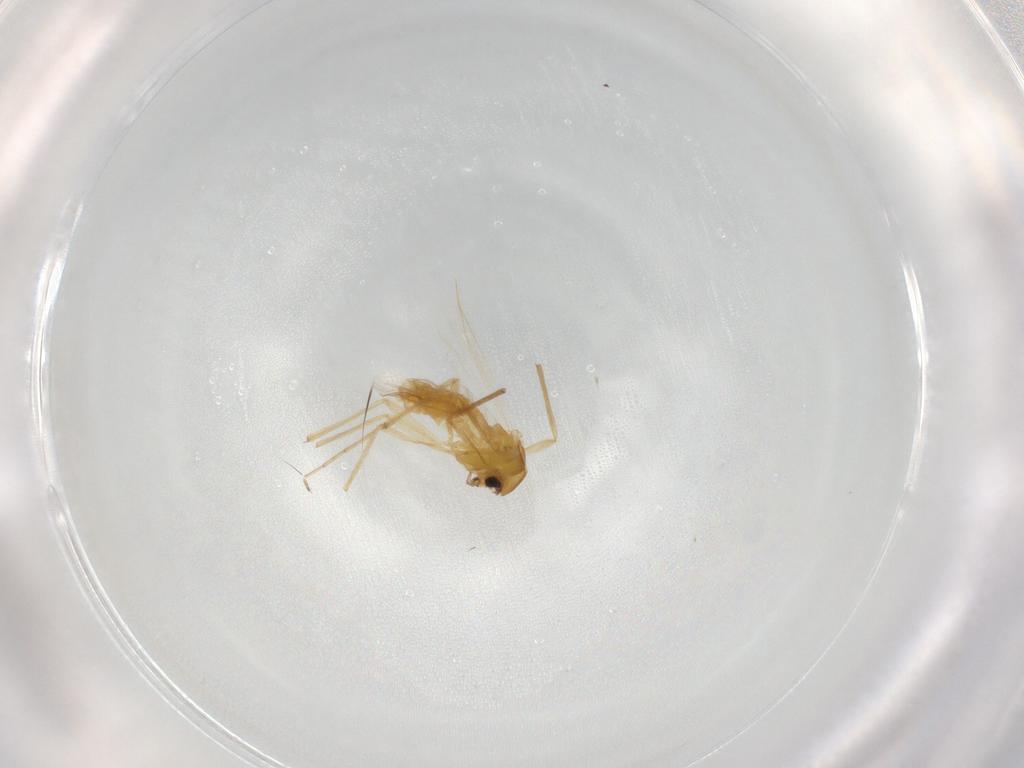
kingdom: Animalia
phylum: Arthropoda
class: Insecta
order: Diptera
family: Chironomidae
